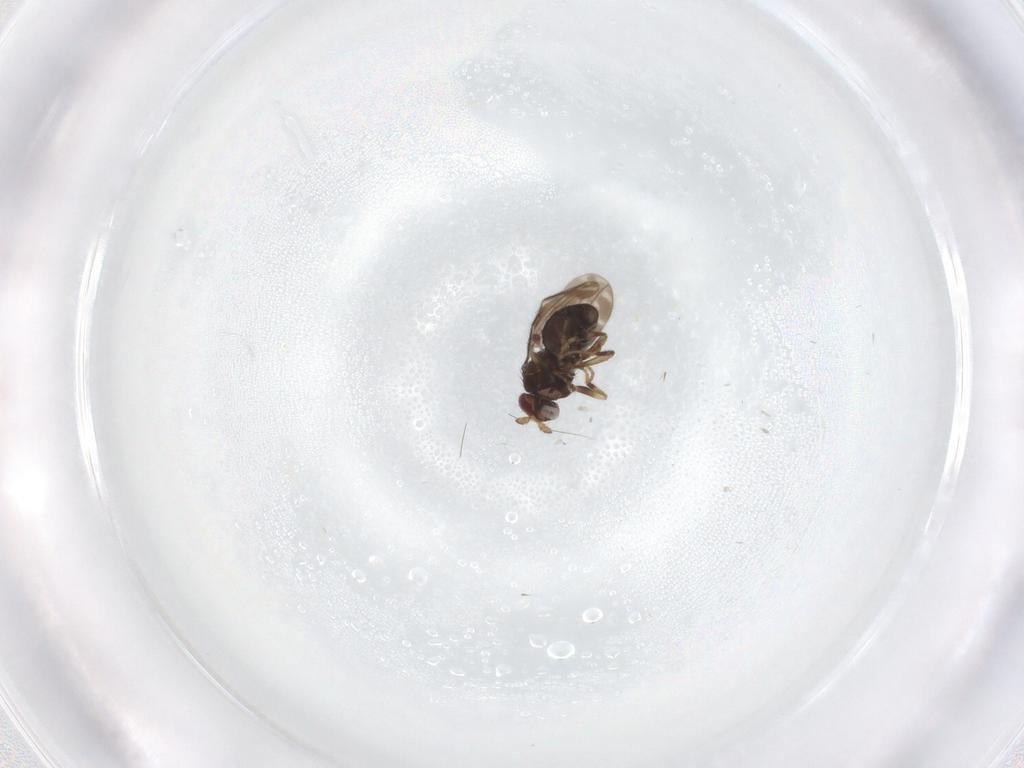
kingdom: Animalia
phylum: Arthropoda
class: Insecta
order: Diptera
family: Sphaeroceridae
